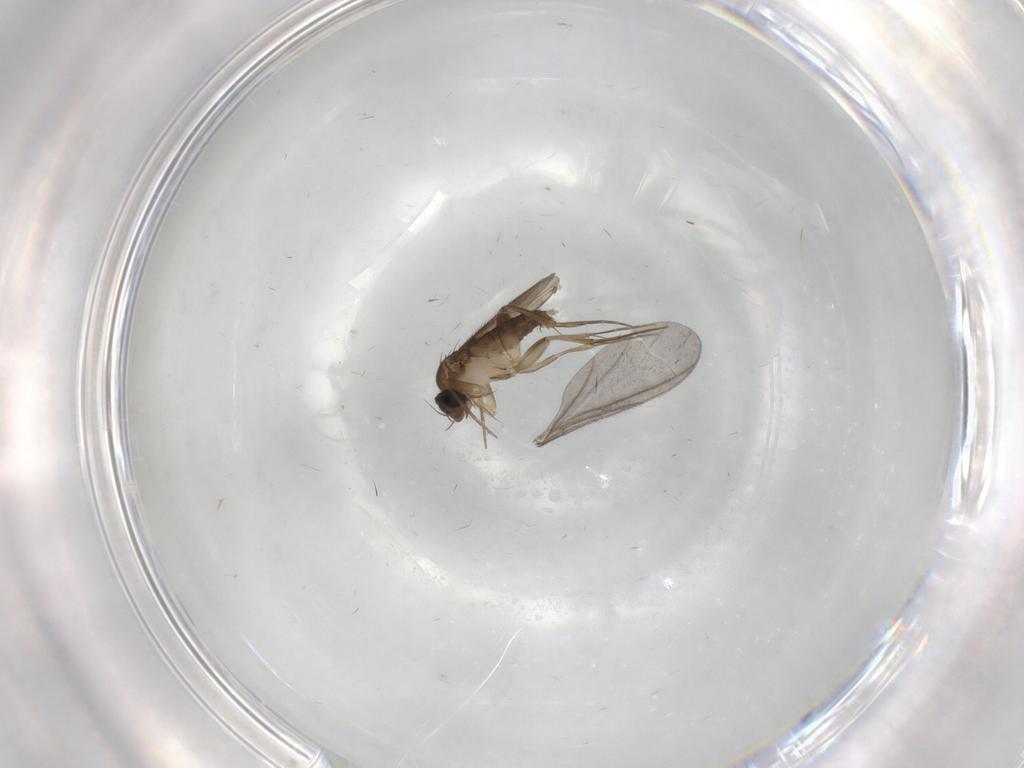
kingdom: Animalia
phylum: Arthropoda
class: Insecta
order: Diptera
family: Phoridae
